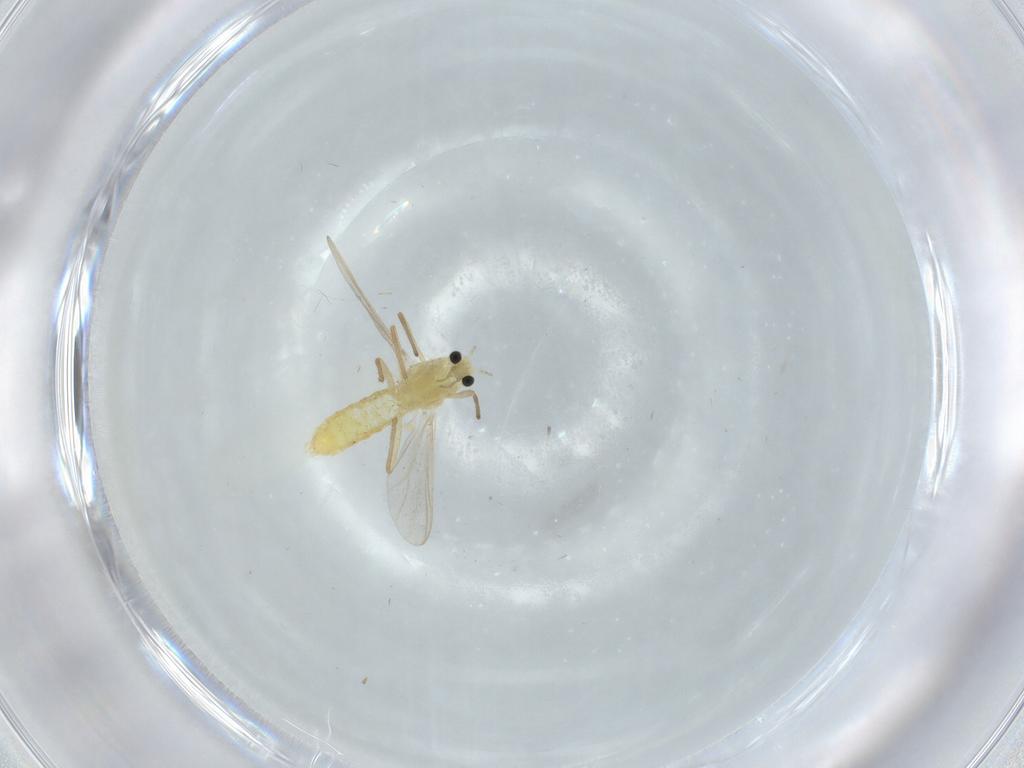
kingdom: Animalia
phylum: Arthropoda
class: Insecta
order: Diptera
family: Chironomidae
